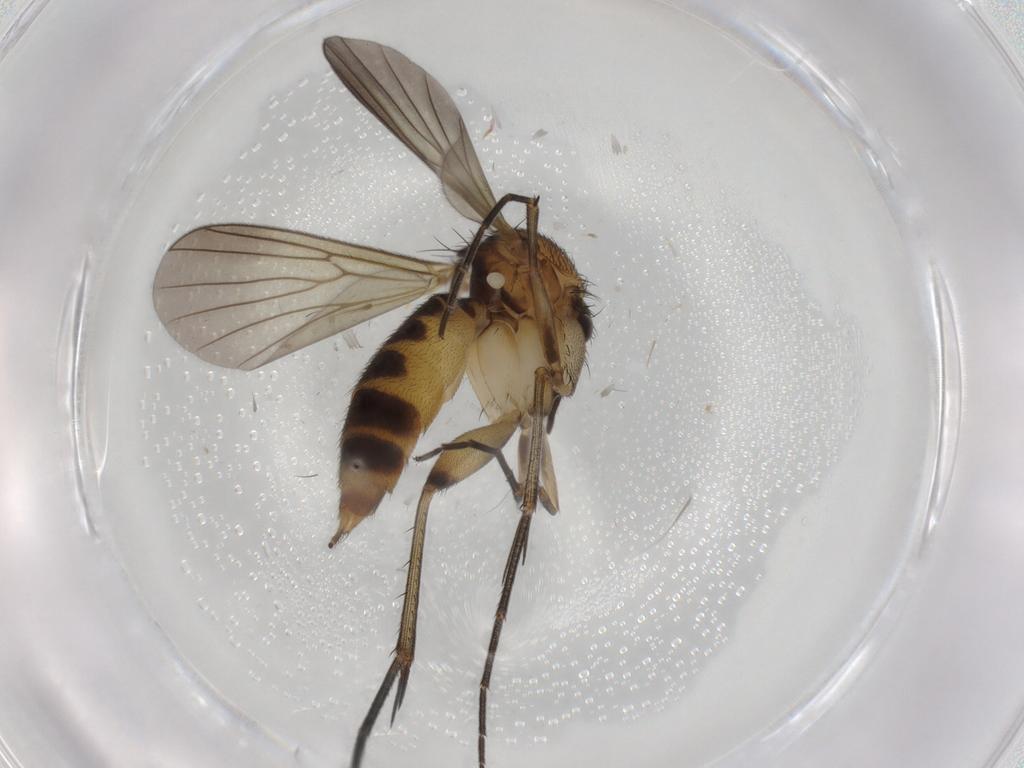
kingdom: Animalia
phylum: Arthropoda
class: Insecta
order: Diptera
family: Mycetophilidae
